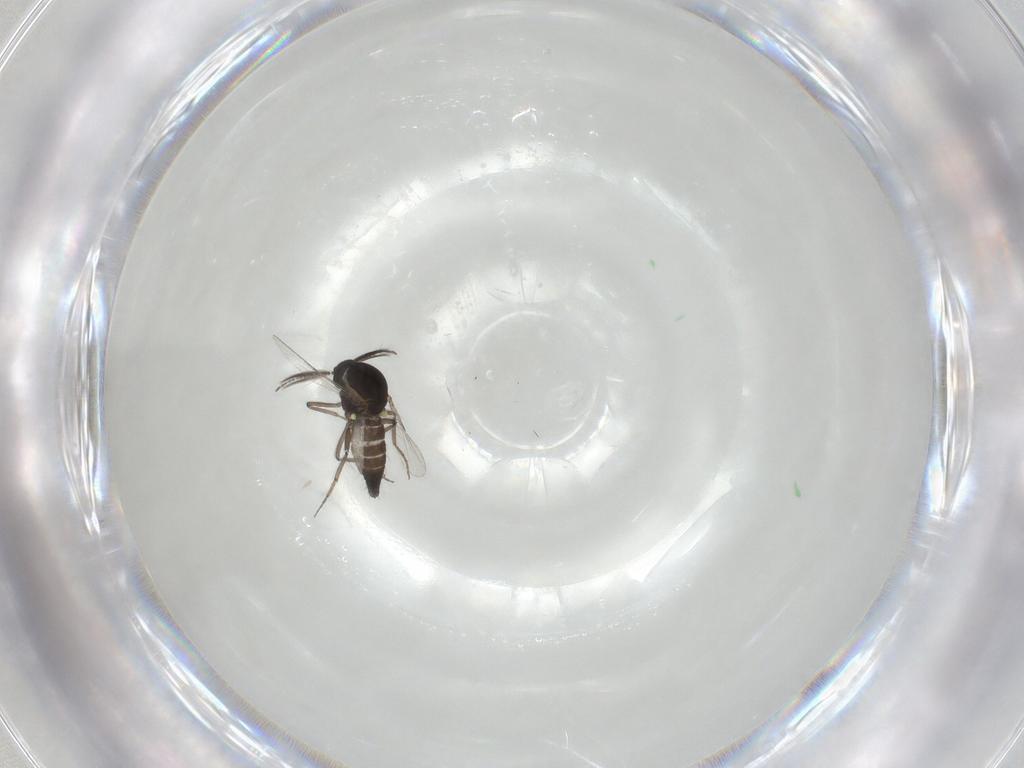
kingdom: Animalia
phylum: Arthropoda
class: Insecta
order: Diptera
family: Ceratopogonidae
